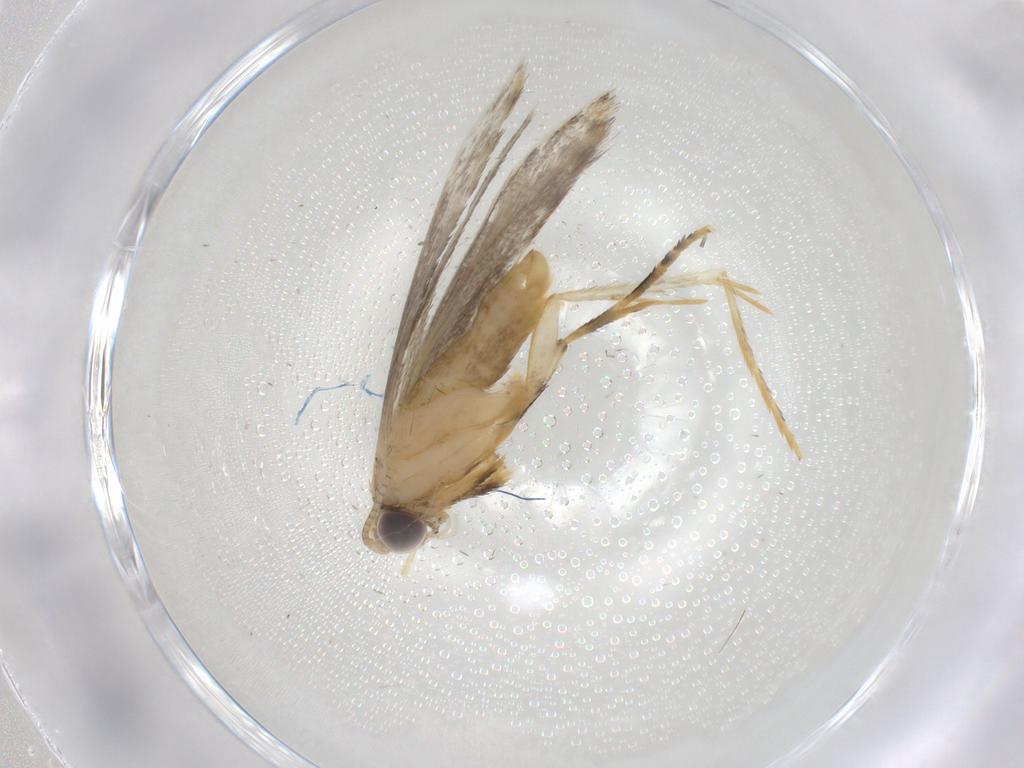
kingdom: Animalia
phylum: Arthropoda
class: Insecta
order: Lepidoptera
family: Tineidae
